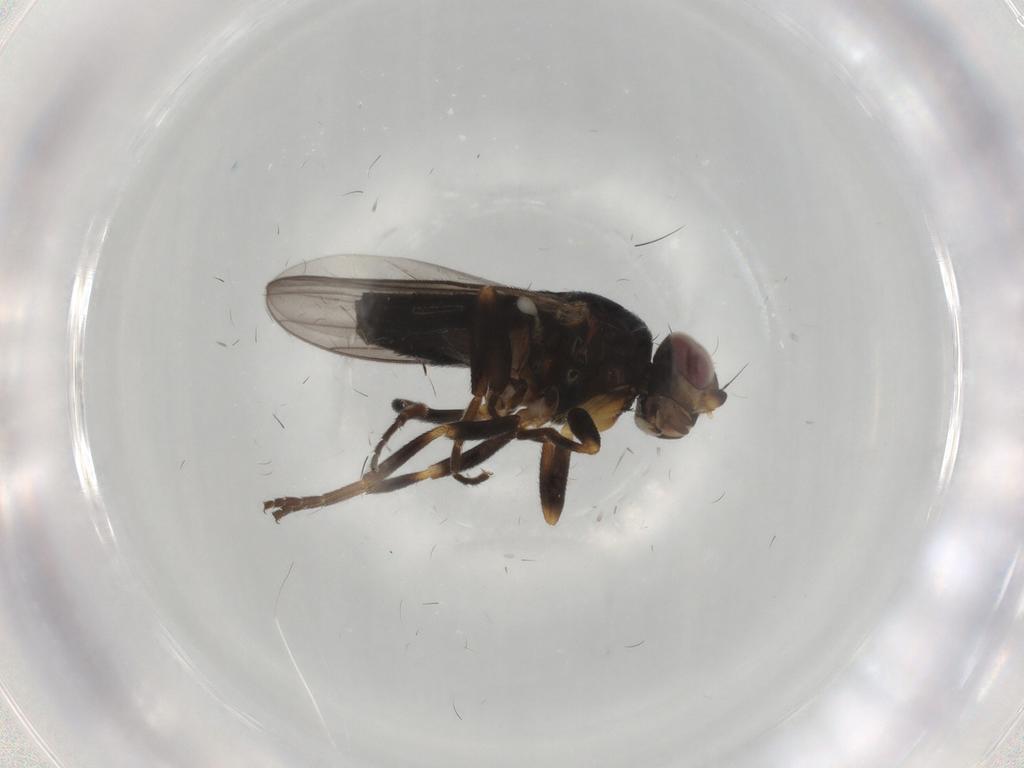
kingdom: Animalia
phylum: Arthropoda
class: Insecta
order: Diptera
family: Chloropidae
